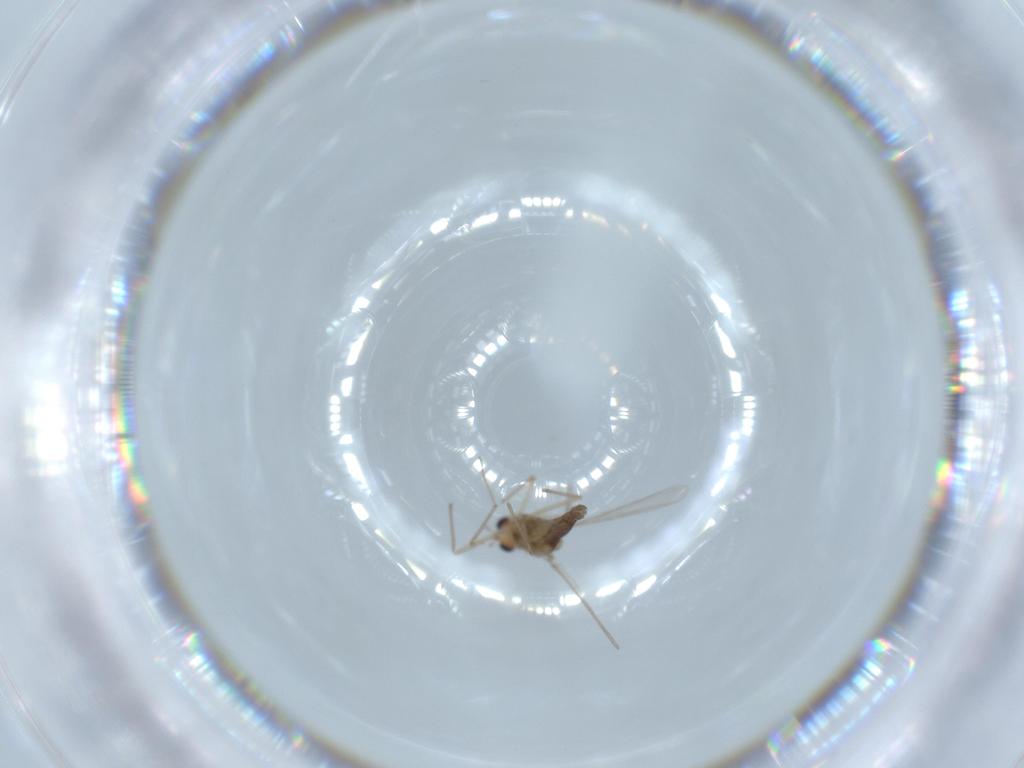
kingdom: Animalia
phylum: Arthropoda
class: Insecta
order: Diptera
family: Chironomidae
